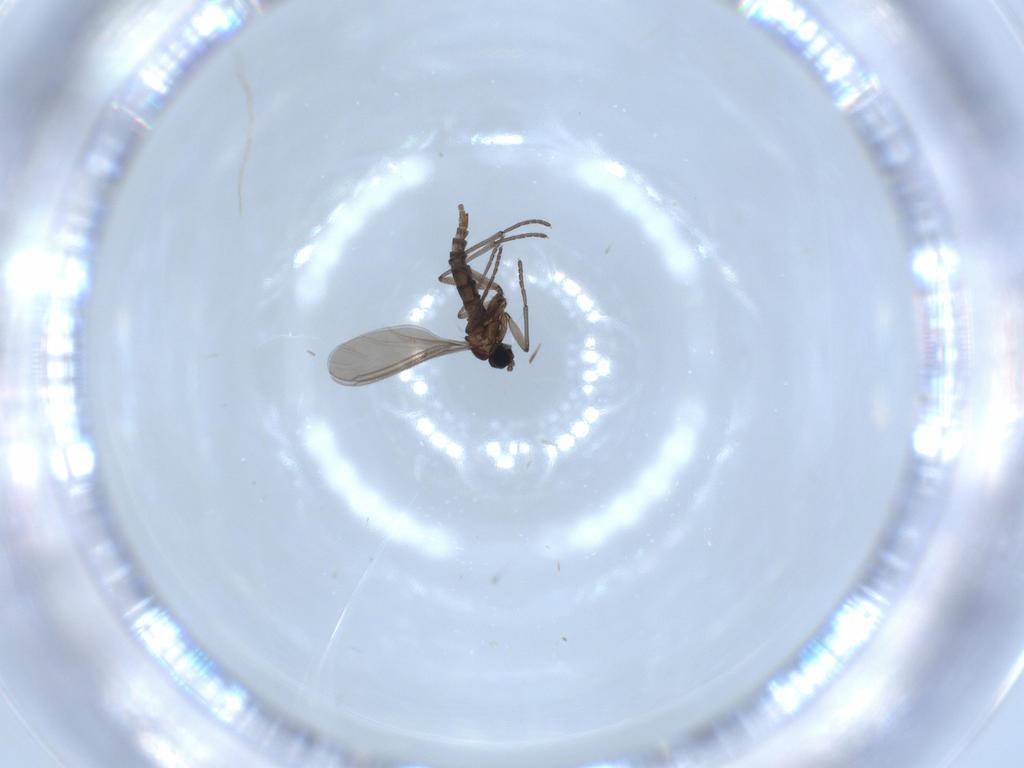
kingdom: Animalia
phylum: Arthropoda
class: Insecta
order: Diptera
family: Sciaridae
